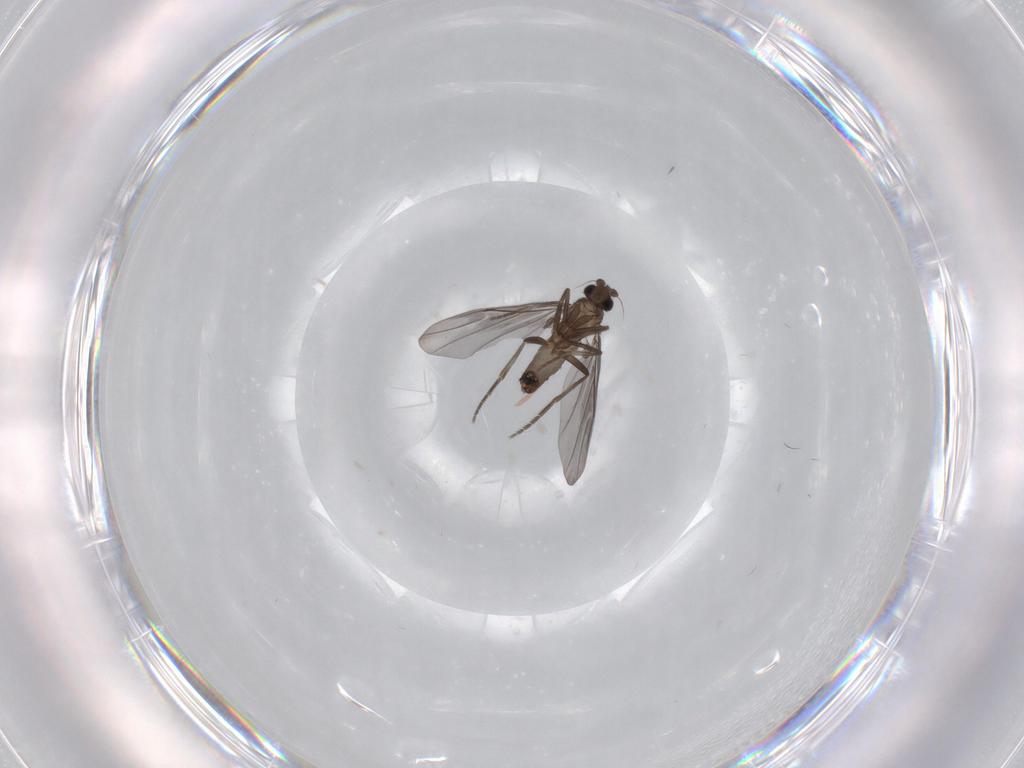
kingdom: Animalia
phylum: Arthropoda
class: Insecta
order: Diptera
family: Phoridae
